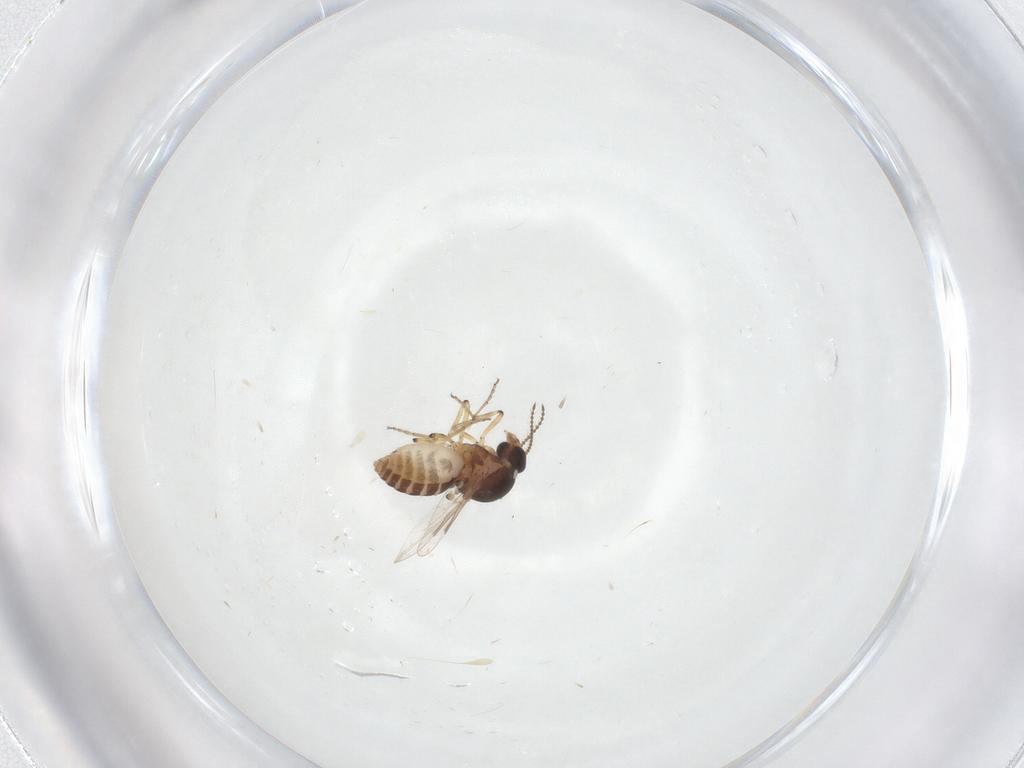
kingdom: Animalia
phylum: Arthropoda
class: Insecta
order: Diptera
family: Ceratopogonidae
